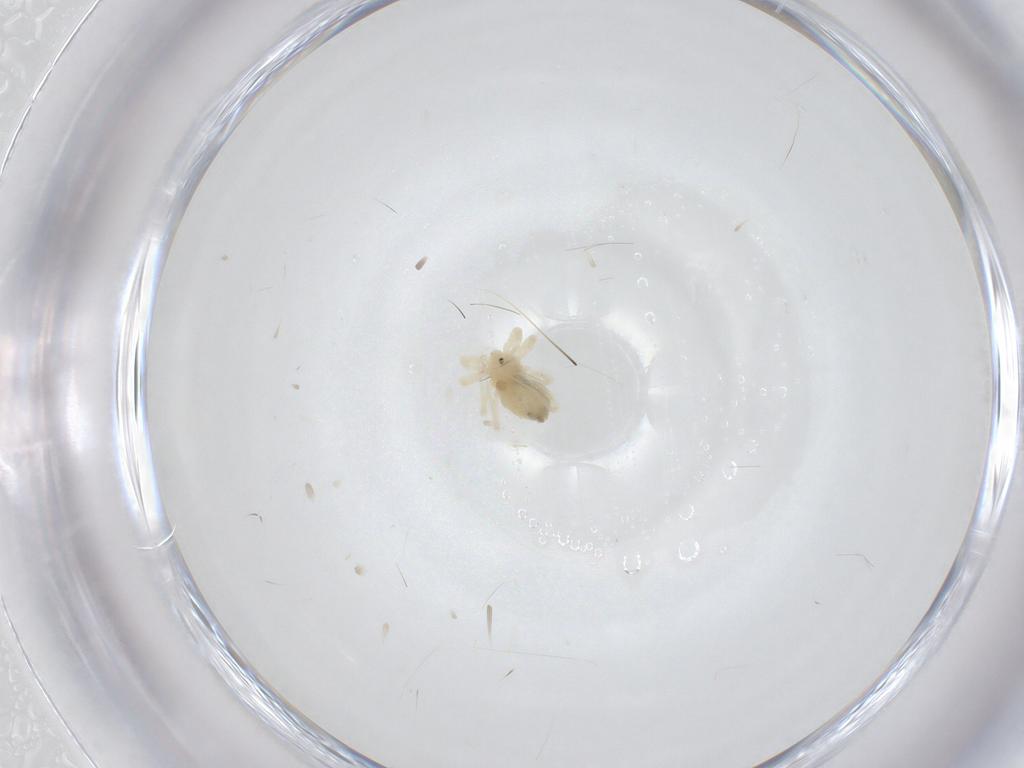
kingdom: Animalia
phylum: Arthropoda
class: Arachnida
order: Trombidiformes
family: Anystidae
